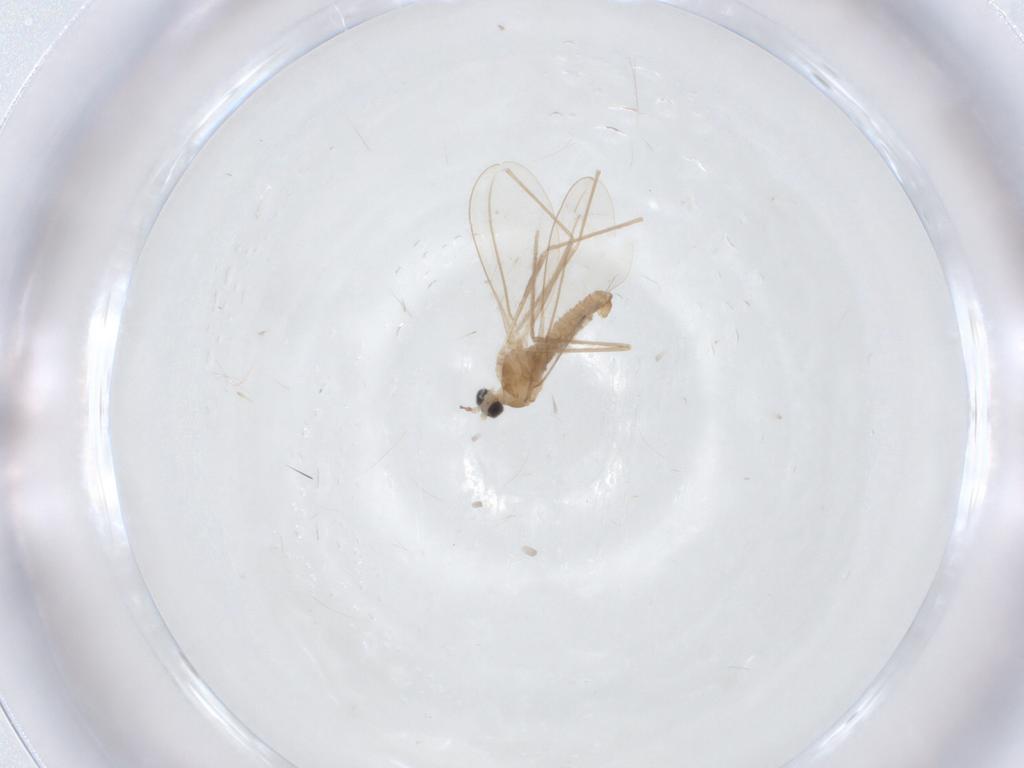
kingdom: Animalia
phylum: Arthropoda
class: Insecta
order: Diptera
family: Cecidomyiidae
